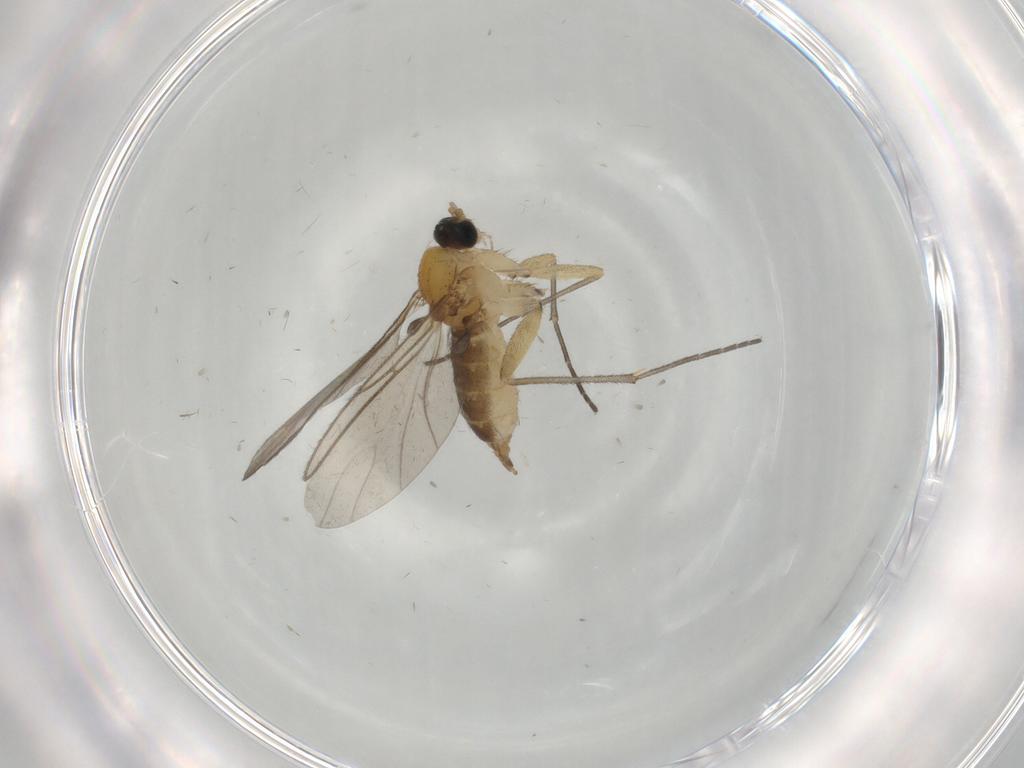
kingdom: Animalia
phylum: Arthropoda
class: Insecta
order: Diptera
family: Sciaridae
